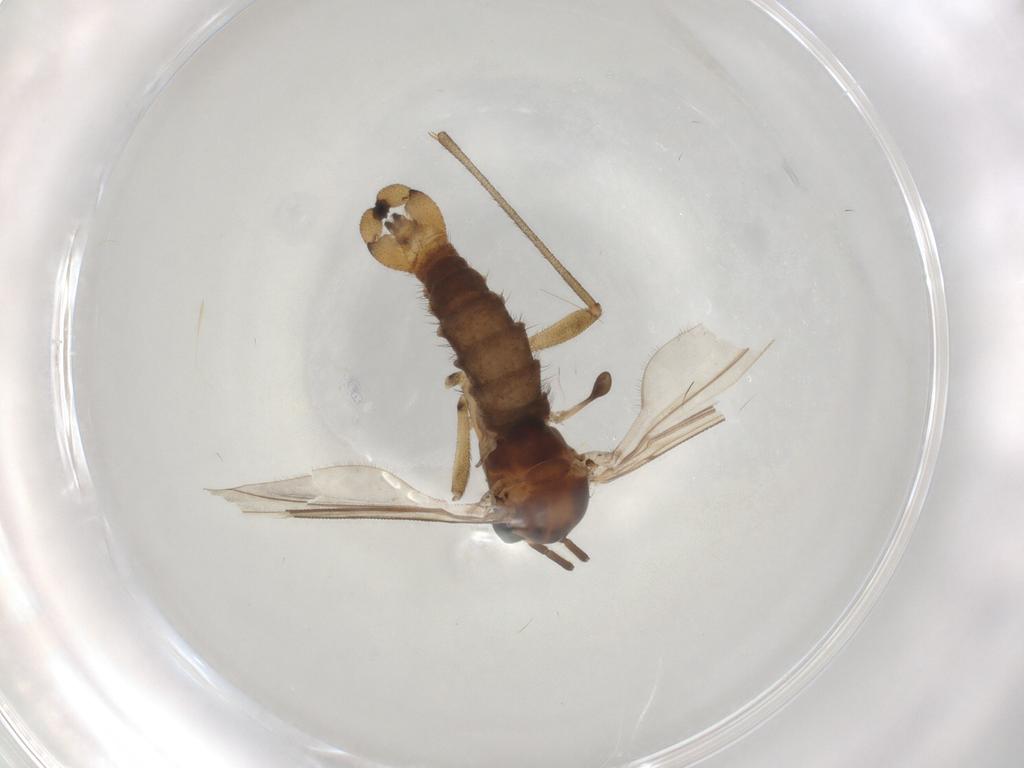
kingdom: Animalia
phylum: Arthropoda
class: Insecta
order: Diptera
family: Sciaridae
